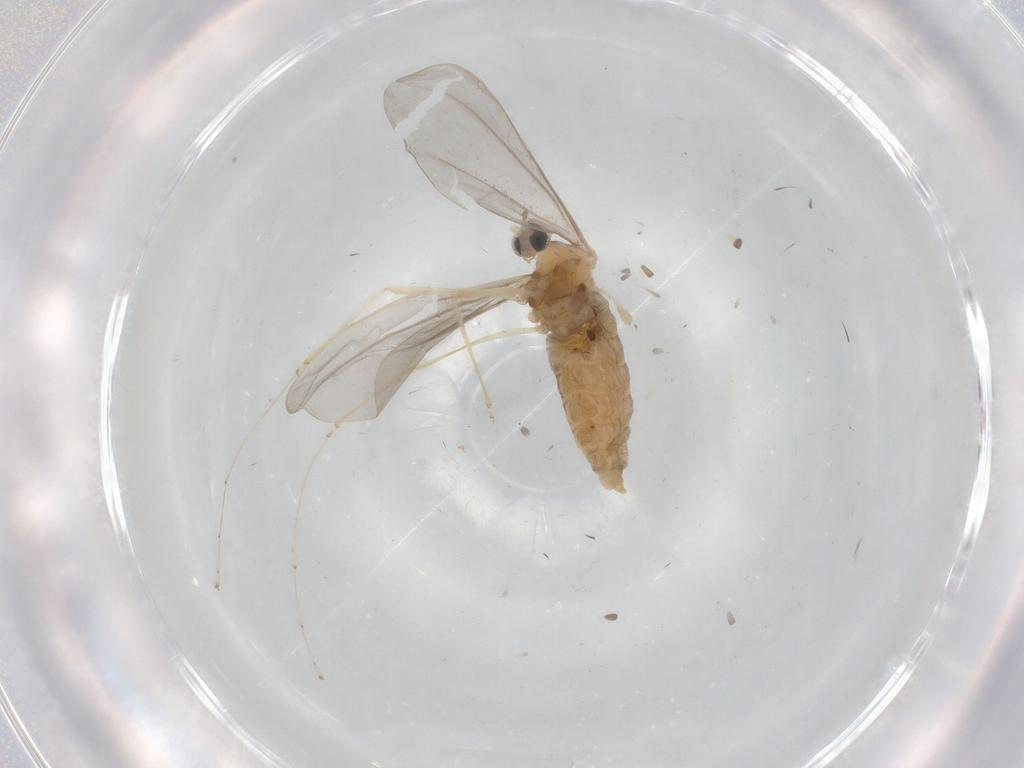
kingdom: Animalia
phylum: Arthropoda
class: Insecta
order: Diptera
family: Cecidomyiidae
